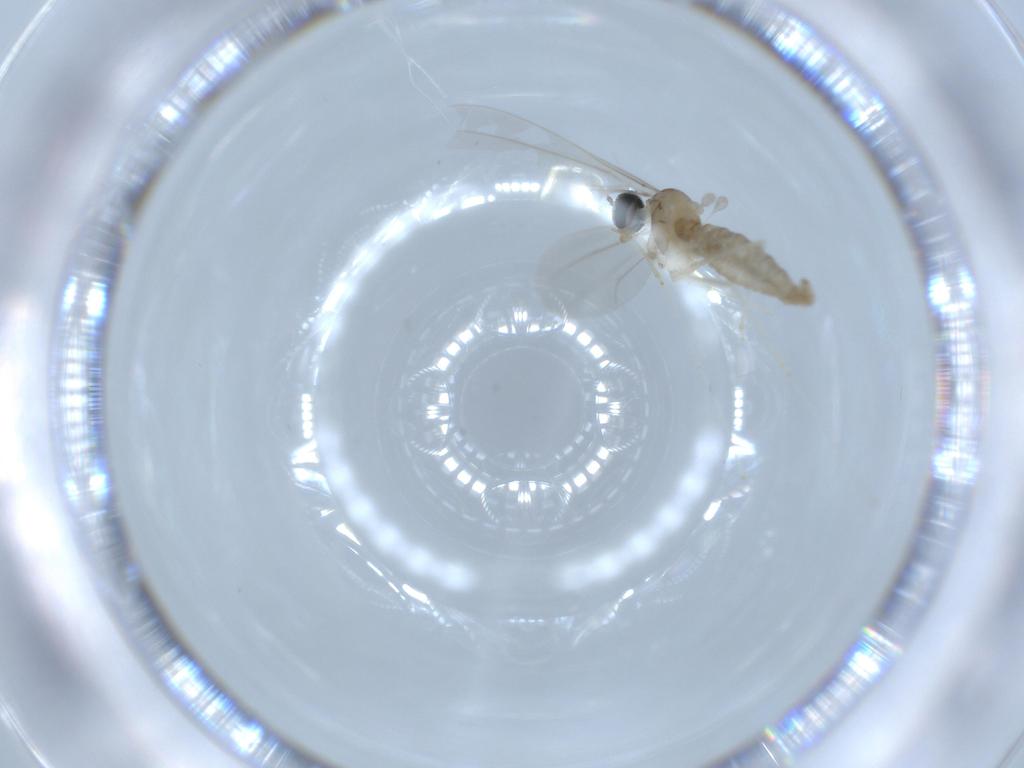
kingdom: Animalia
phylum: Arthropoda
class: Insecta
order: Diptera
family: Cecidomyiidae
